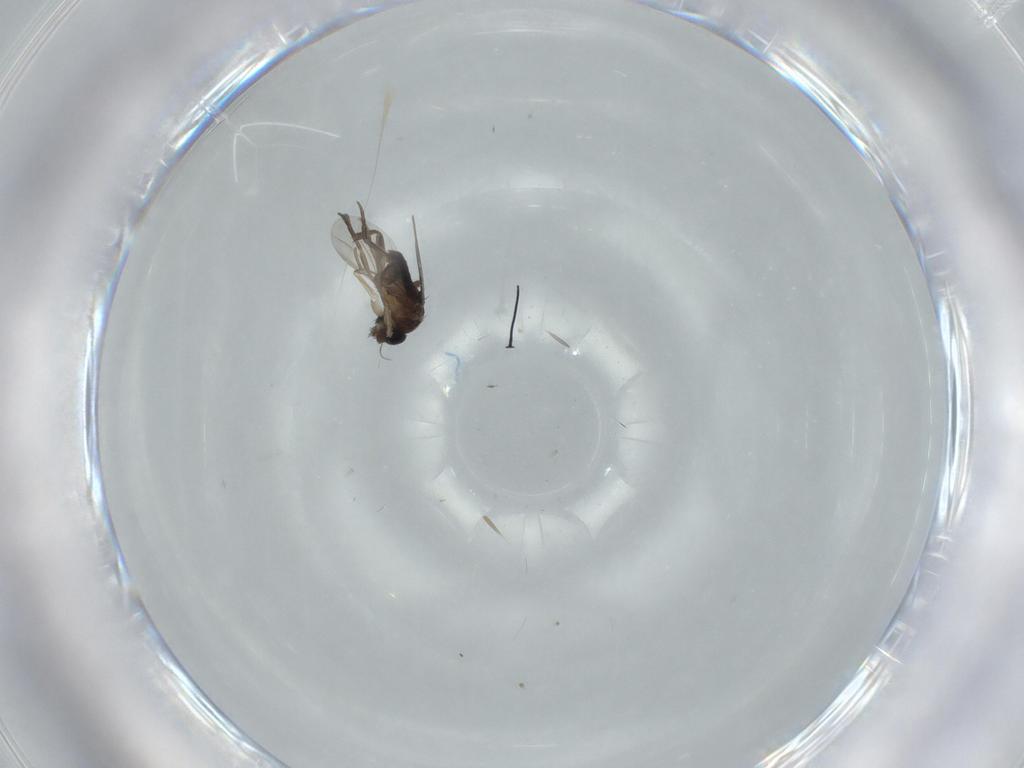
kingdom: Animalia
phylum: Arthropoda
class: Insecta
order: Diptera
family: Phoridae
